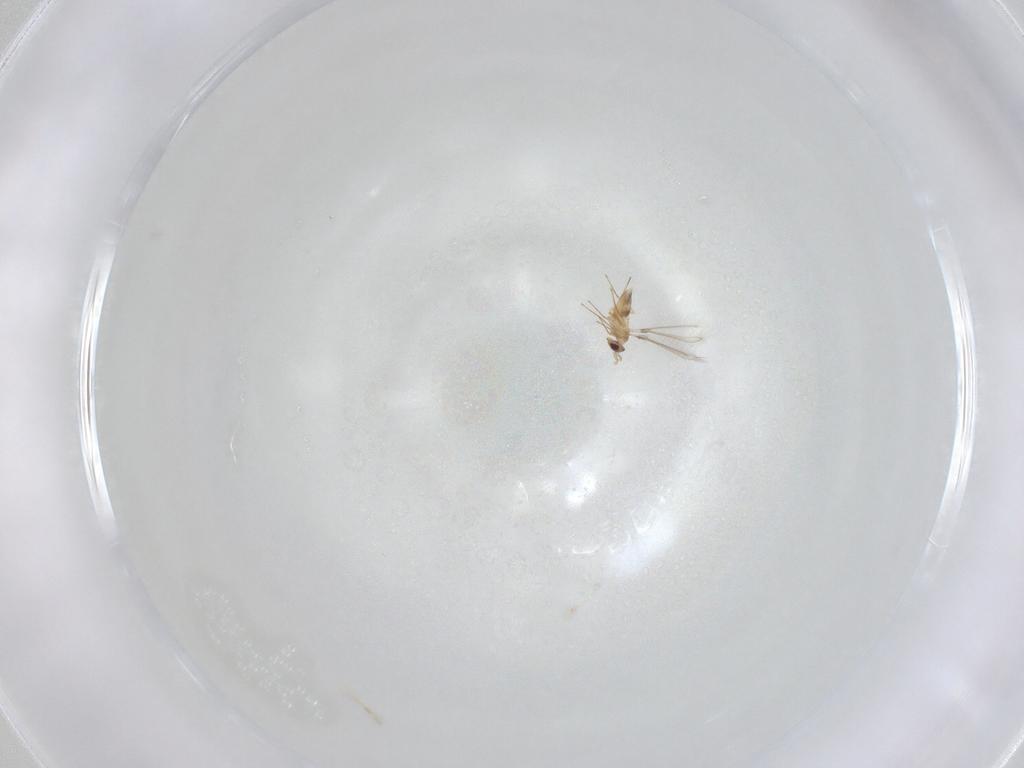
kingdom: Animalia
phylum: Arthropoda
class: Insecta
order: Hymenoptera
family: Mymaridae
